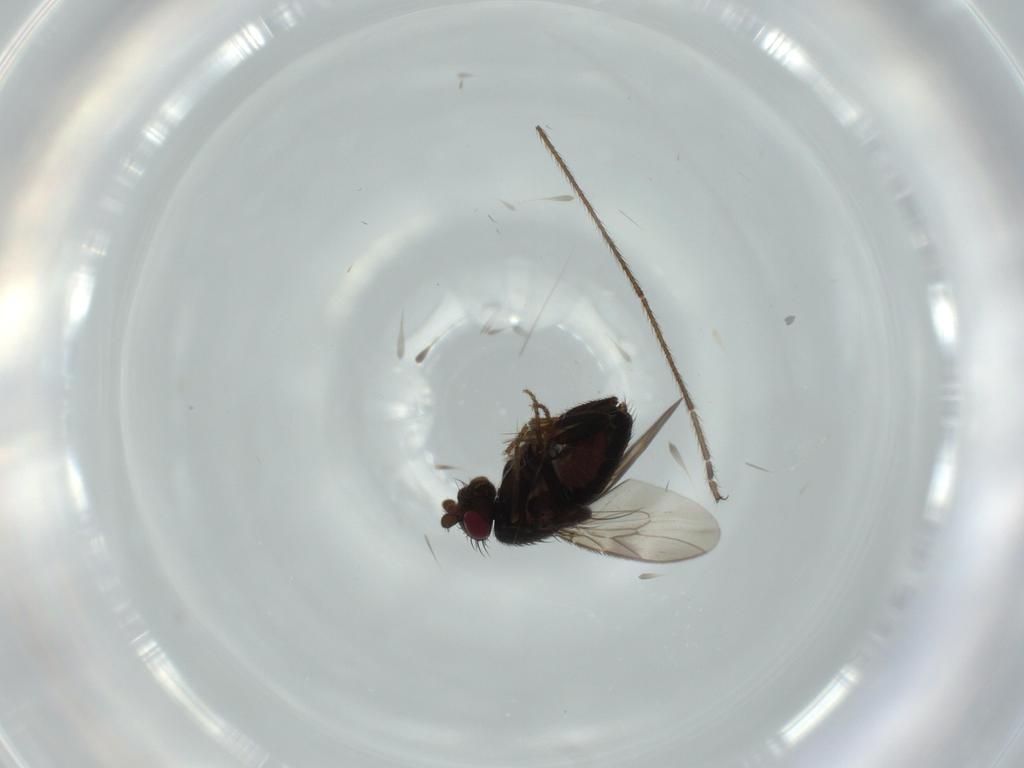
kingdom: Animalia
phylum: Arthropoda
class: Insecta
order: Diptera
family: Sphaeroceridae
